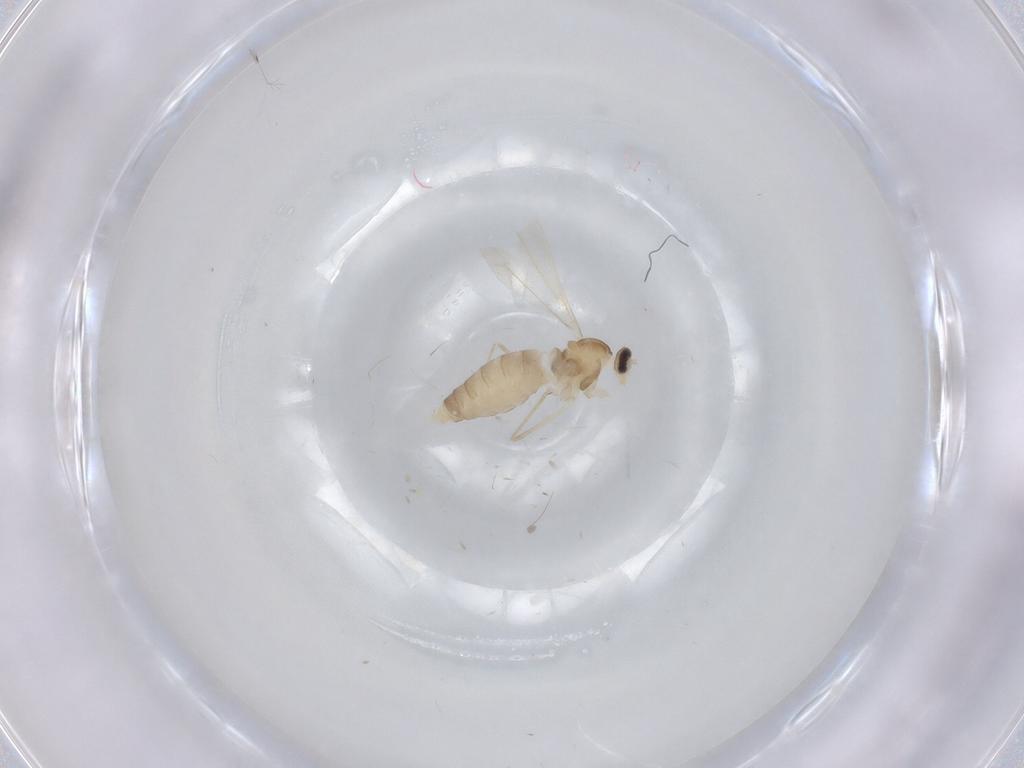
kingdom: Animalia
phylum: Arthropoda
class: Insecta
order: Diptera
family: Cecidomyiidae
